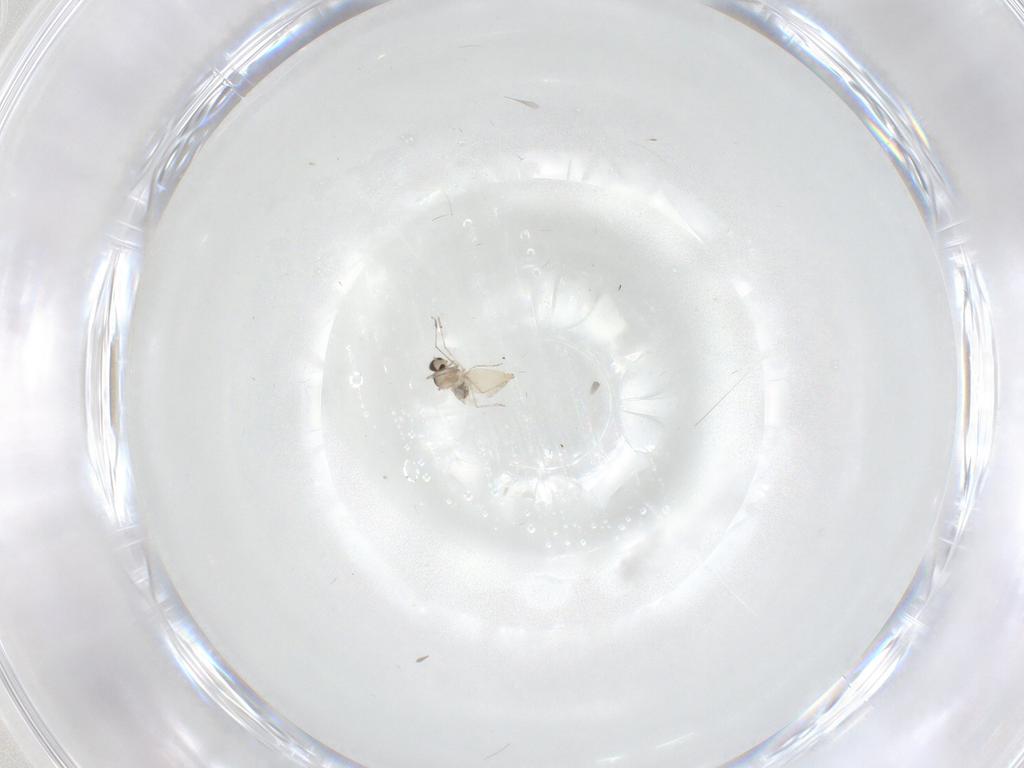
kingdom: Animalia
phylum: Arthropoda
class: Insecta
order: Diptera
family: Cecidomyiidae
